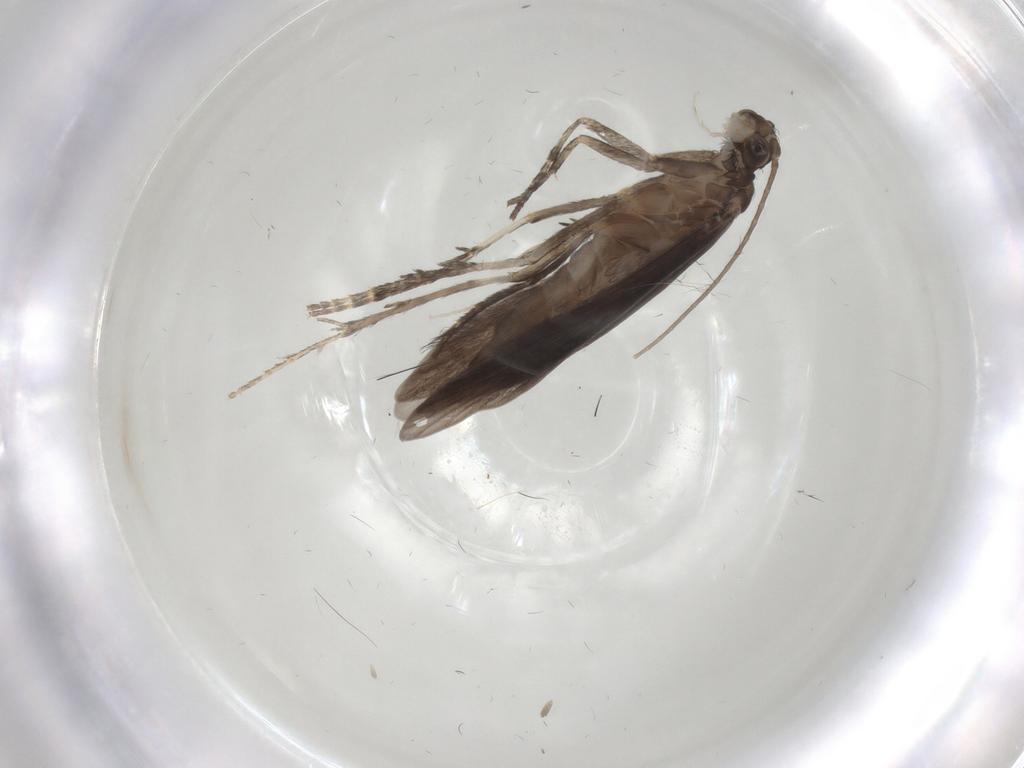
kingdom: Animalia
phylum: Arthropoda
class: Insecta
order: Trichoptera
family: Xiphocentronidae
